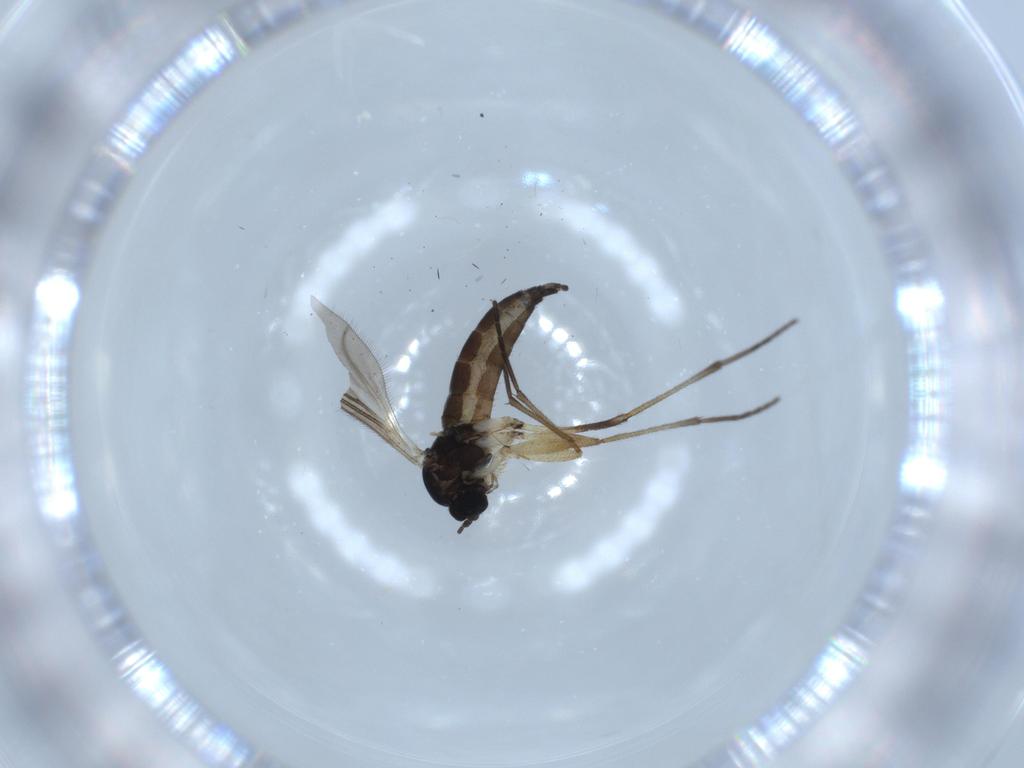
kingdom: Animalia
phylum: Arthropoda
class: Insecta
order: Diptera
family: Sciaridae
